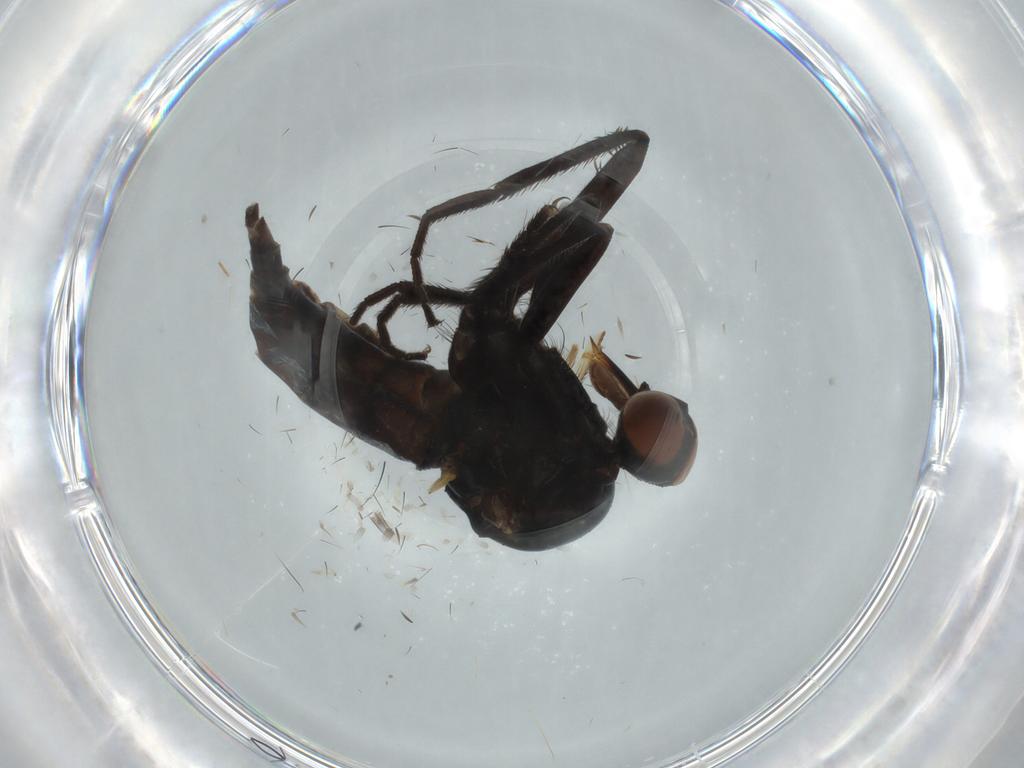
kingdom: Animalia
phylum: Arthropoda
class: Insecta
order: Diptera
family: Empididae
